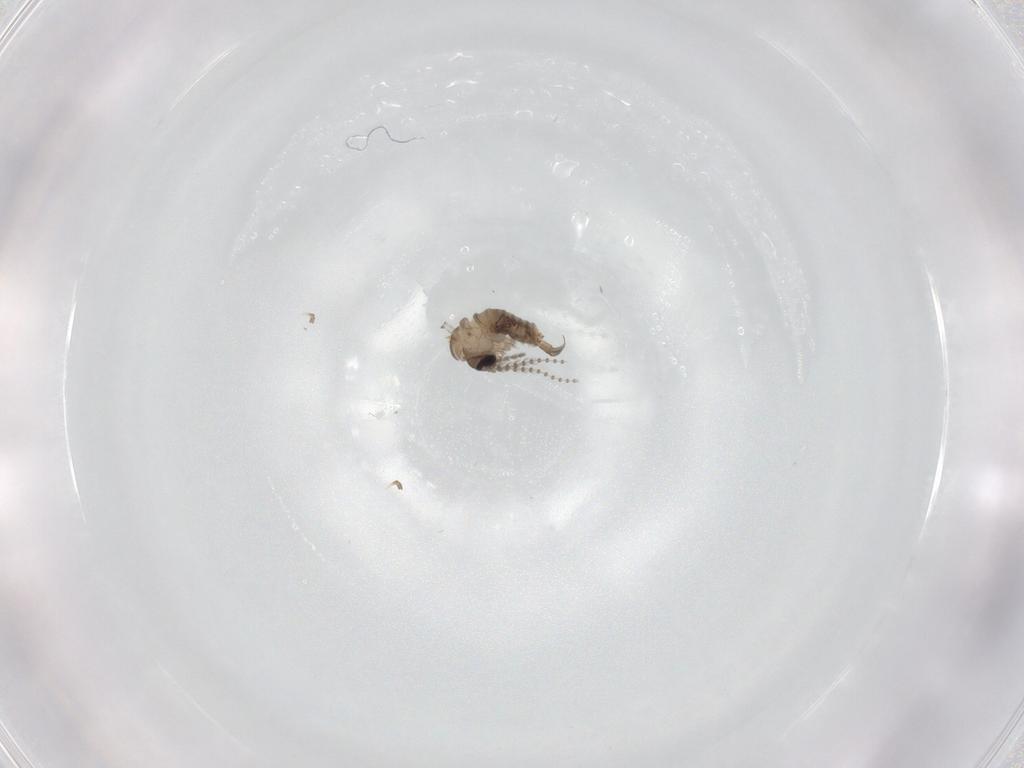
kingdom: Animalia
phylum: Arthropoda
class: Insecta
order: Diptera
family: Psychodidae
